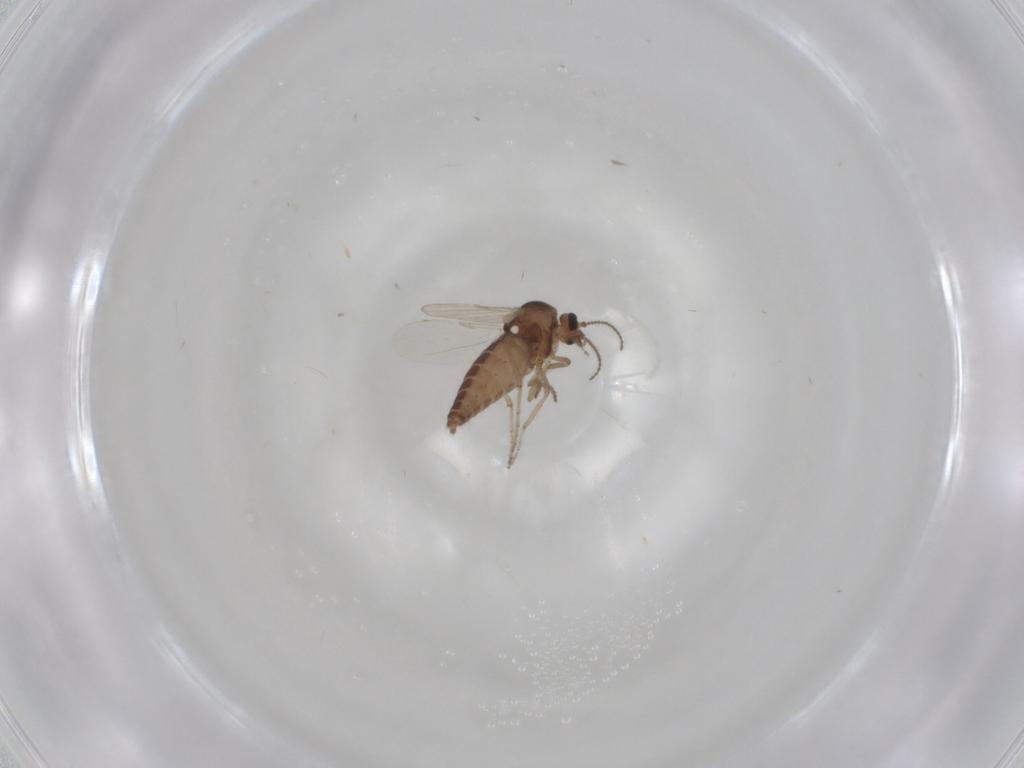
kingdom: Animalia
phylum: Arthropoda
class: Insecta
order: Diptera
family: Ceratopogonidae
